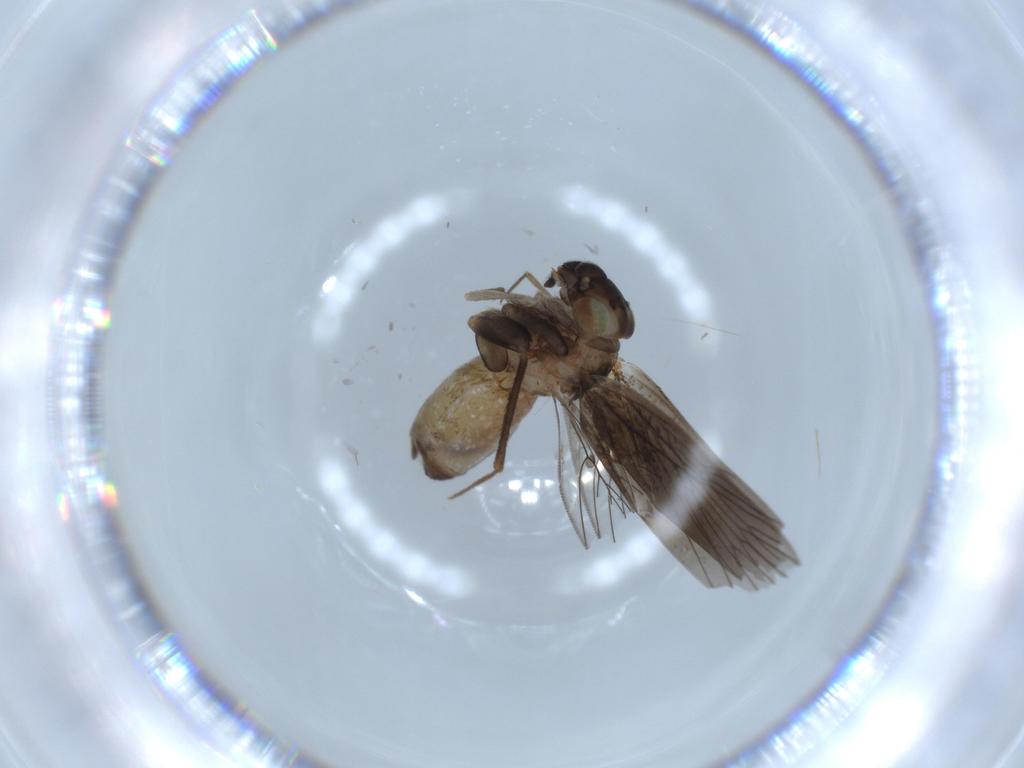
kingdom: Animalia
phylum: Arthropoda
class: Insecta
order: Psocodea
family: Lepidopsocidae
